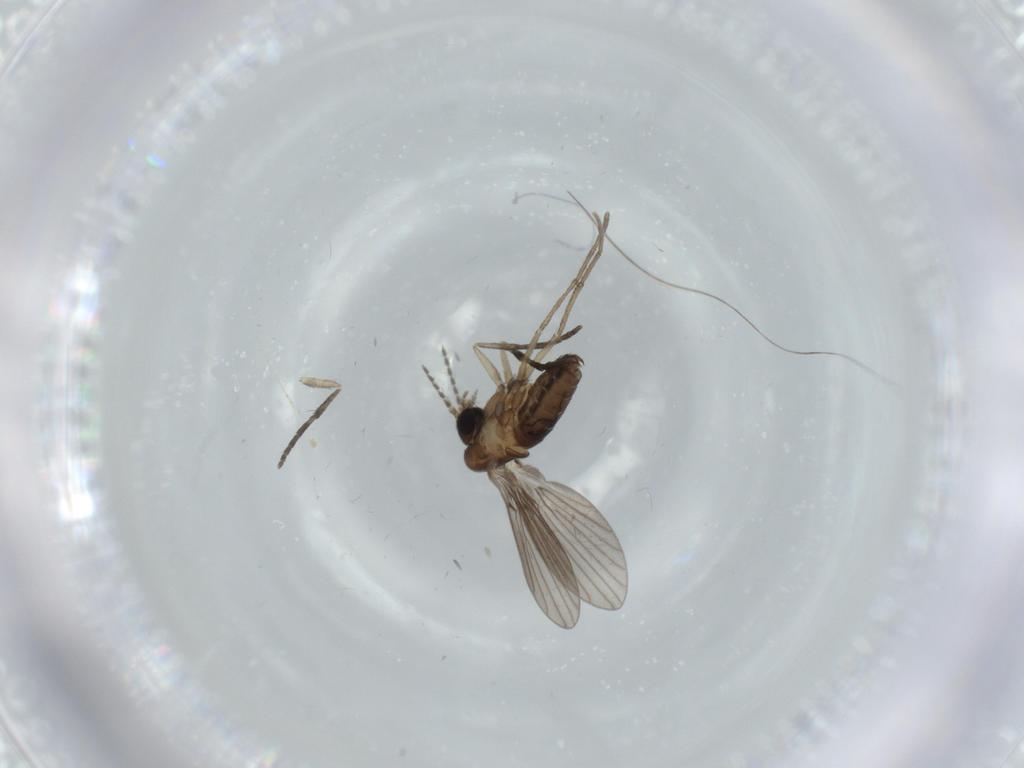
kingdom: Animalia
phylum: Arthropoda
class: Insecta
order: Diptera
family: Psychodidae
